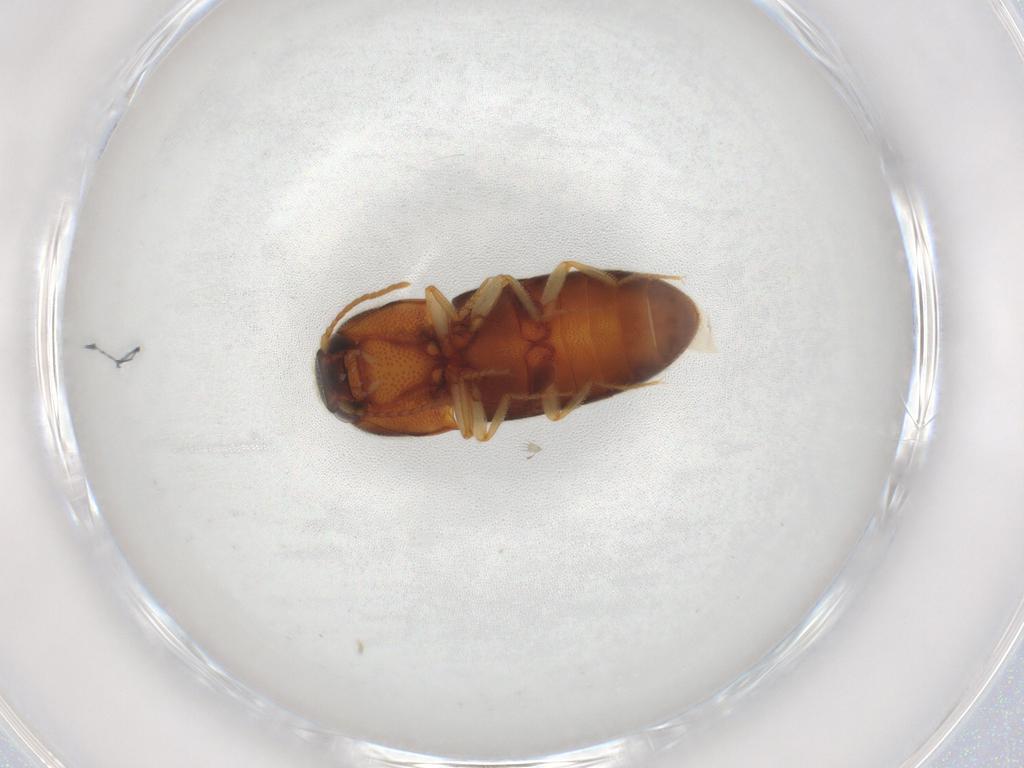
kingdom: Animalia
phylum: Arthropoda
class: Insecta
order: Coleoptera
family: Elateridae
